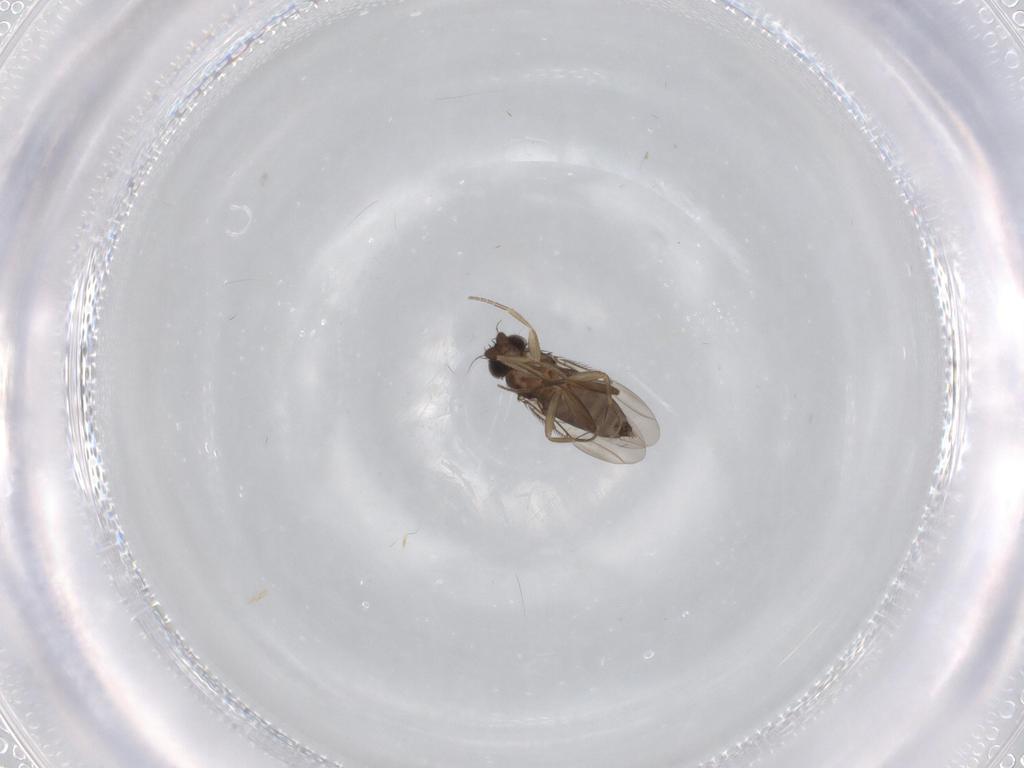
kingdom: Animalia
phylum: Arthropoda
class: Insecta
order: Diptera
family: Phoridae
